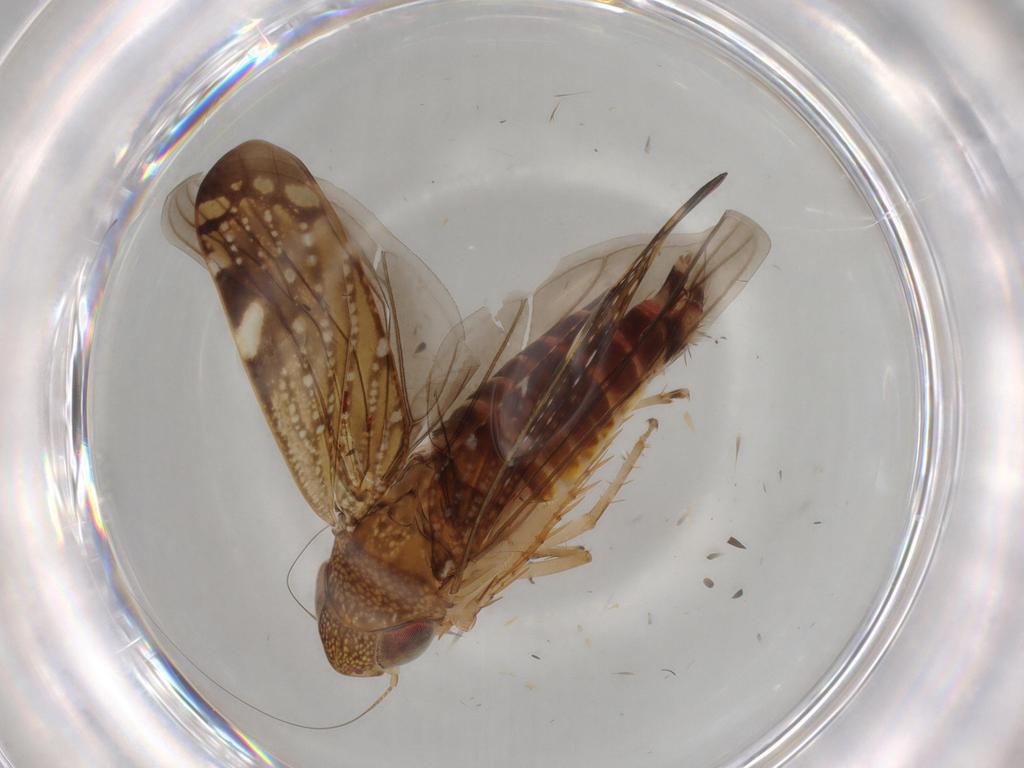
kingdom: Animalia
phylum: Arthropoda
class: Insecta
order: Hemiptera
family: Cicadellidae
